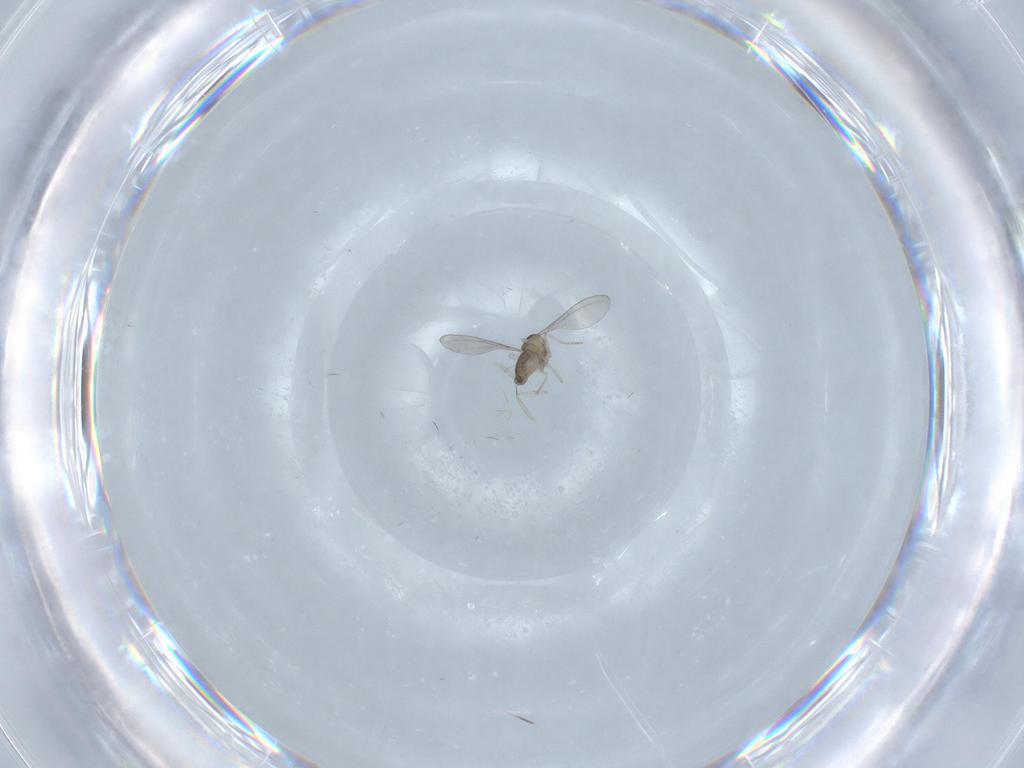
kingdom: Animalia
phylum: Arthropoda
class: Insecta
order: Diptera
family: Cecidomyiidae
